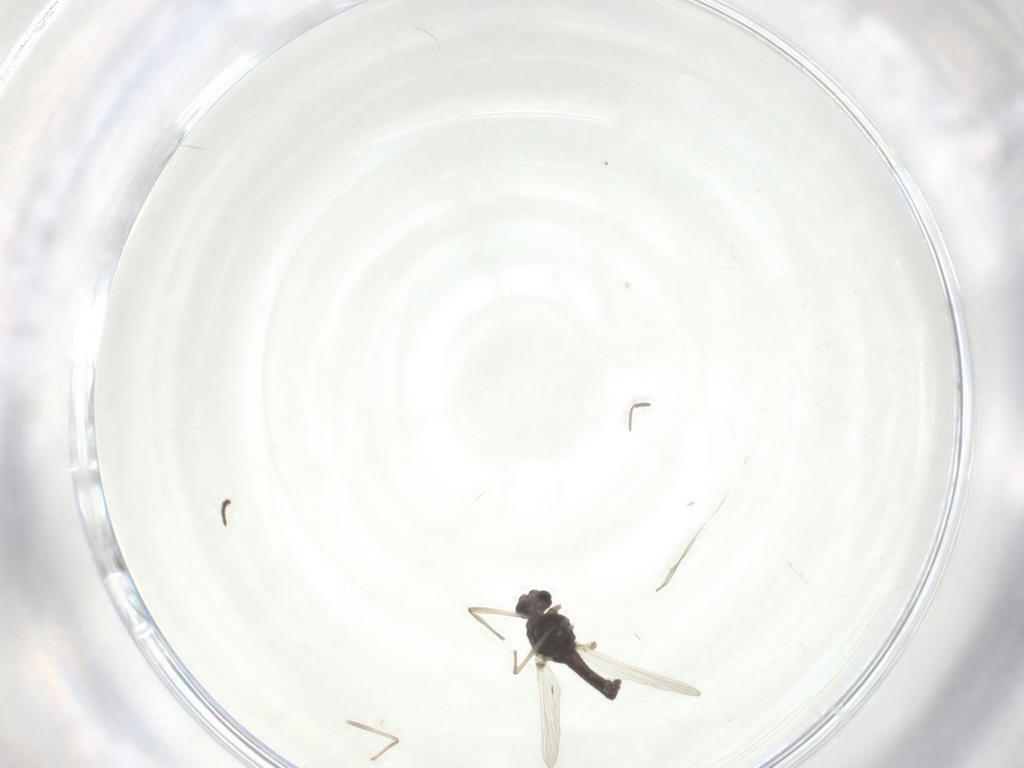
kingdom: Animalia
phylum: Arthropoda
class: Insecta
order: Diptera
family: Chironomidae
